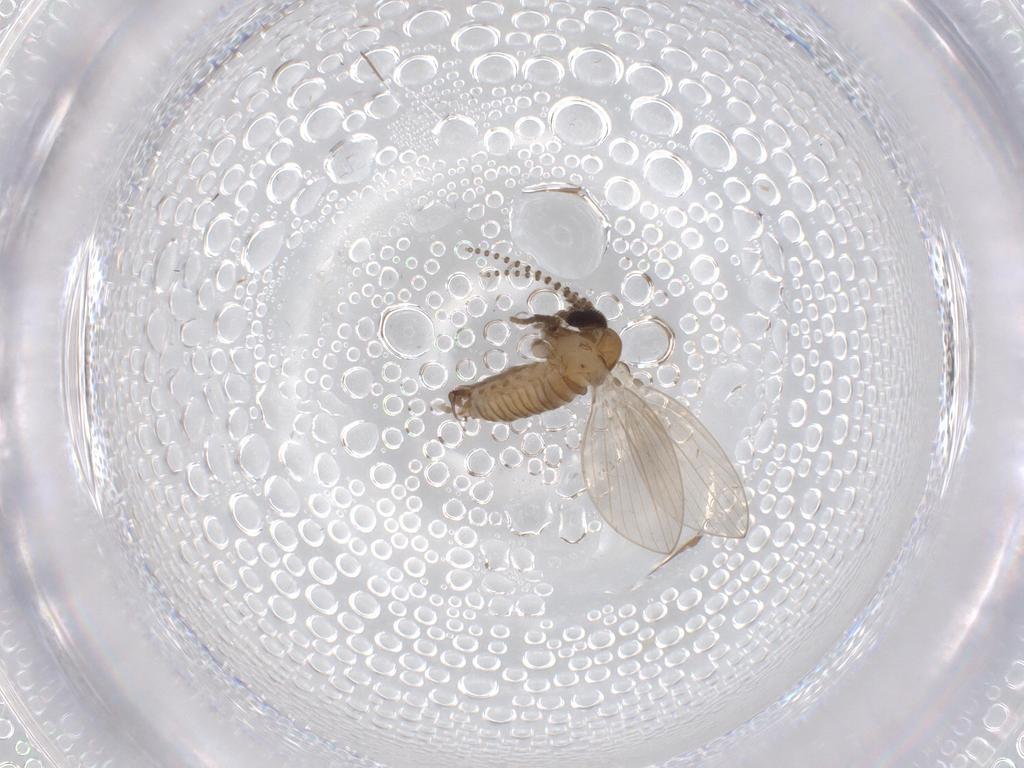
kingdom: Animalia
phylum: Arthropoda
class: Insecta
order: Diptera
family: Psychodidae
